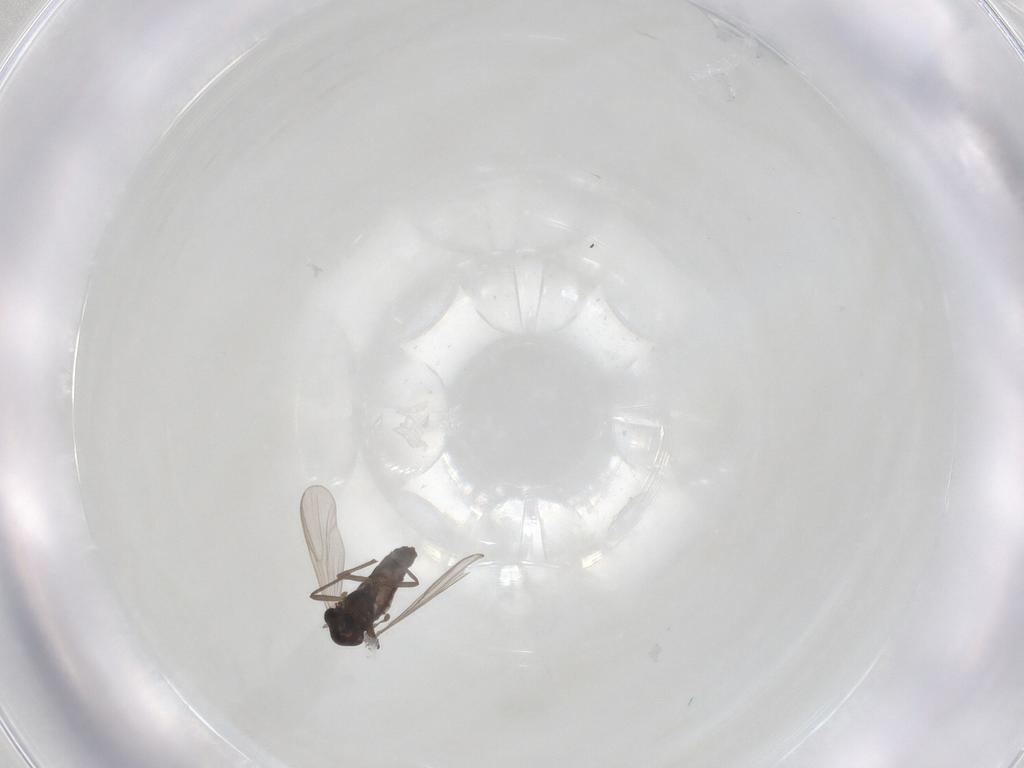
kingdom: Animalia
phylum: Arthropoda
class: Insecta
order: Diptera
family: Chironomidae
